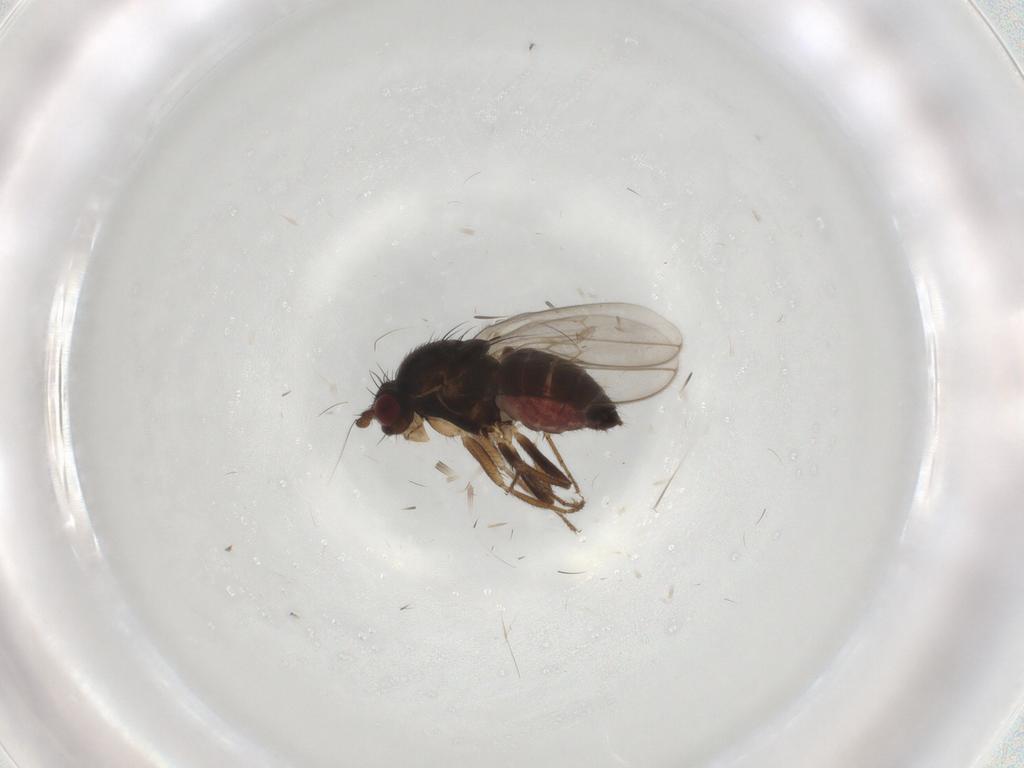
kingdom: Animalia
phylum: Arthropoda
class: Insecta
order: Diptera
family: Sphaeroceridae
